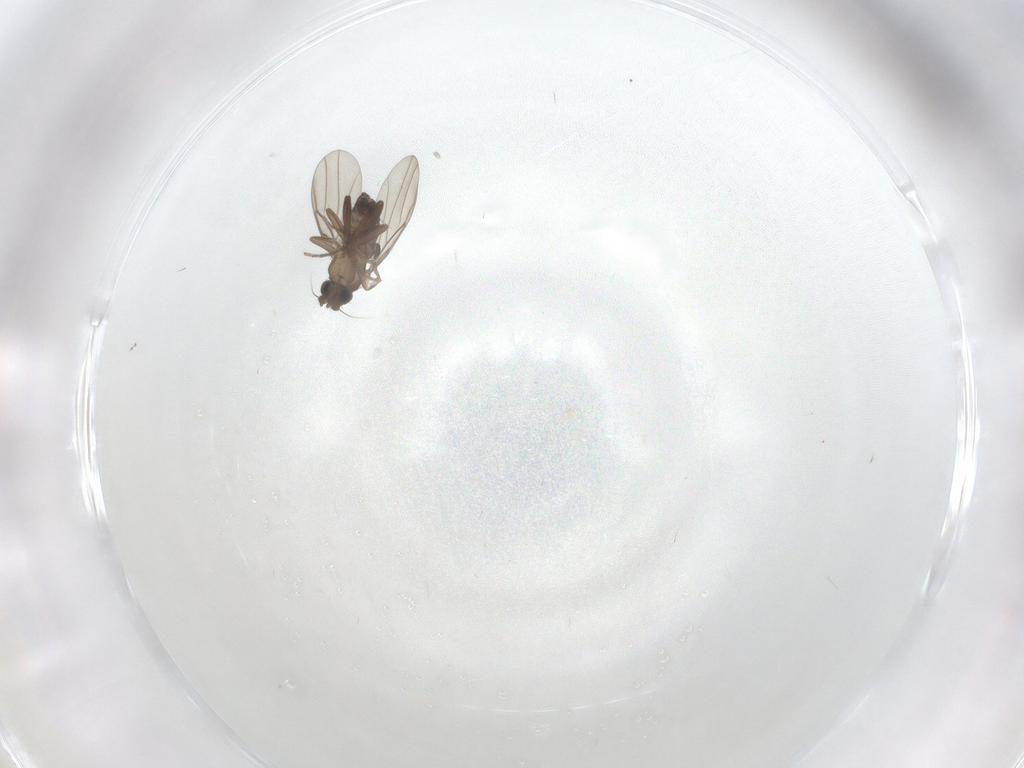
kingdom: Animalia
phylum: Arthropoda
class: Insecta
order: Diptera
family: Phoridae
